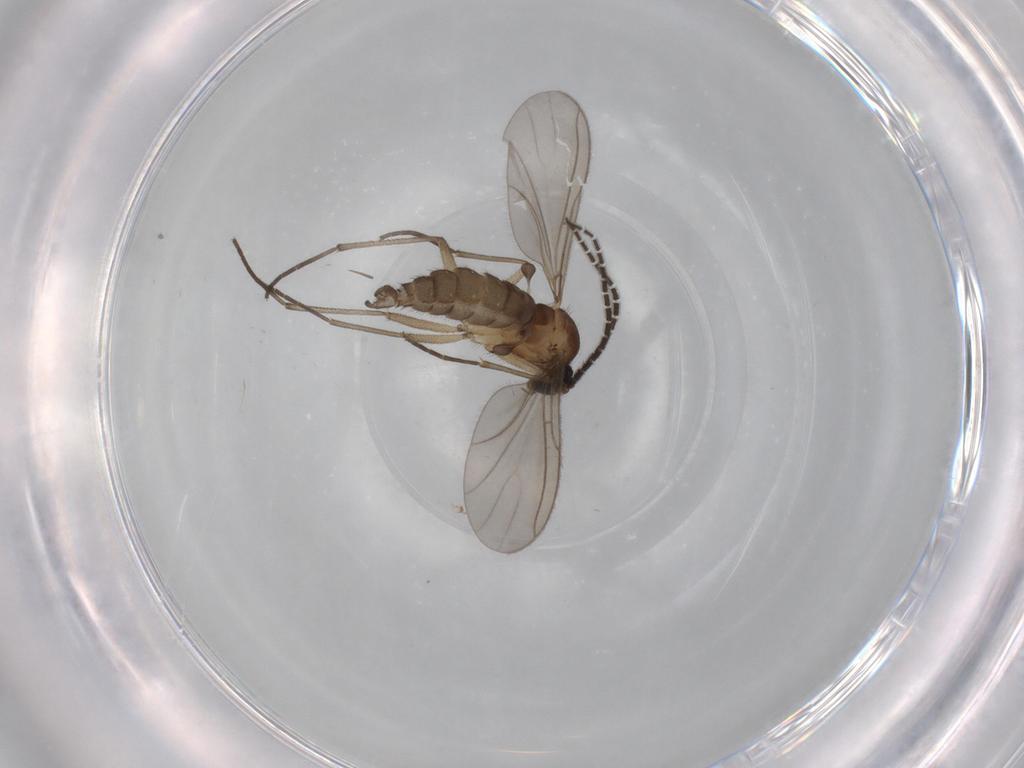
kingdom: Animalia
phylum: Arthropoda
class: Insecta
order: Diptera
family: Sciaridae
